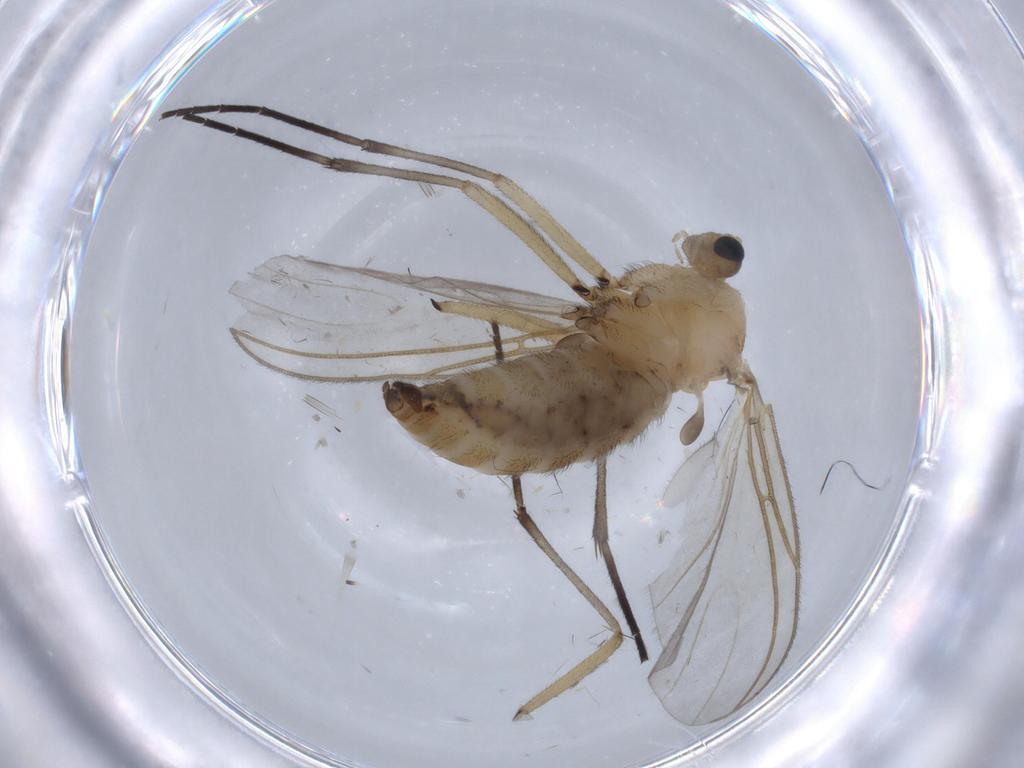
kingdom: Animalia
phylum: Arthropoda
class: Insecta
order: Diptera
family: Sciaridae
